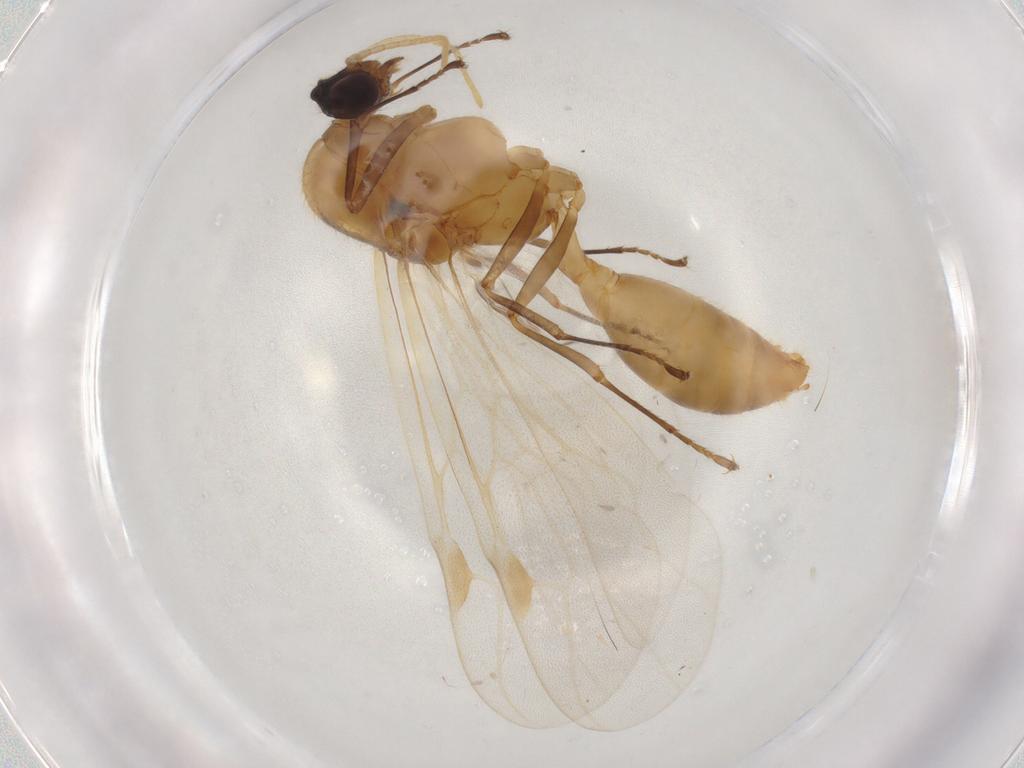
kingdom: Animalia
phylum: Arthropoda
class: Insecta
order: Hymenoptera
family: Formicidae
